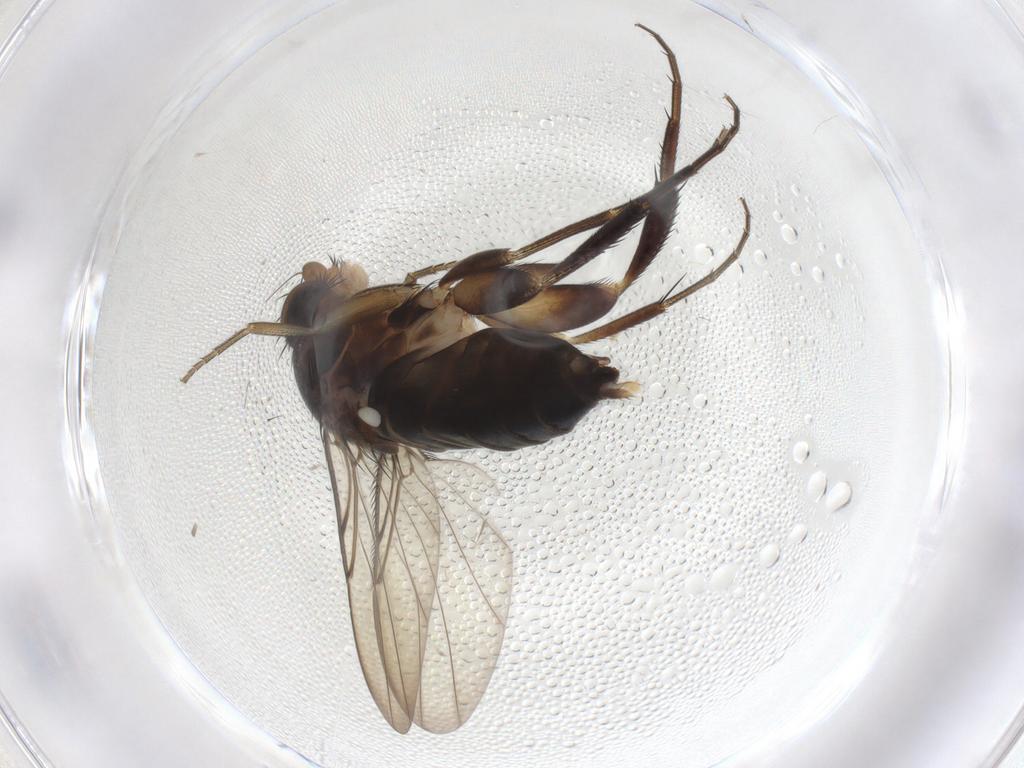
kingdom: Animalia
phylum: Arthropoda
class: Insecta
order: Diptera
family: Phoridae
